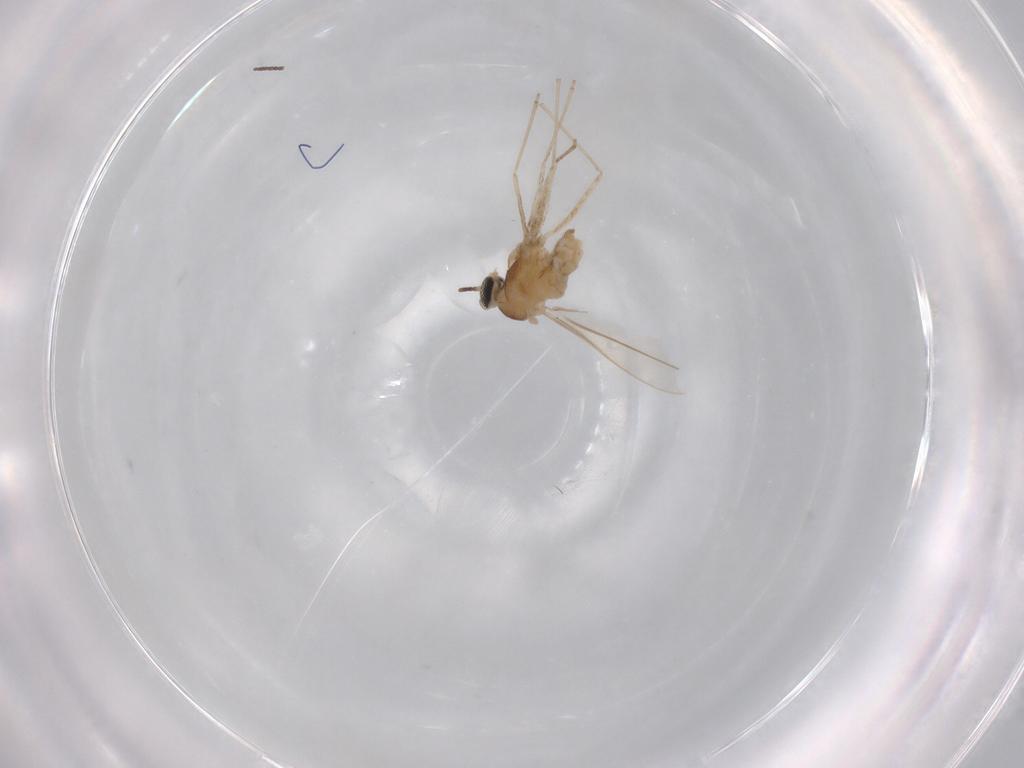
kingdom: Animalia
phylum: Arthropoda
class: Insecta
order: Diptera
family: Cecidomyiidae
